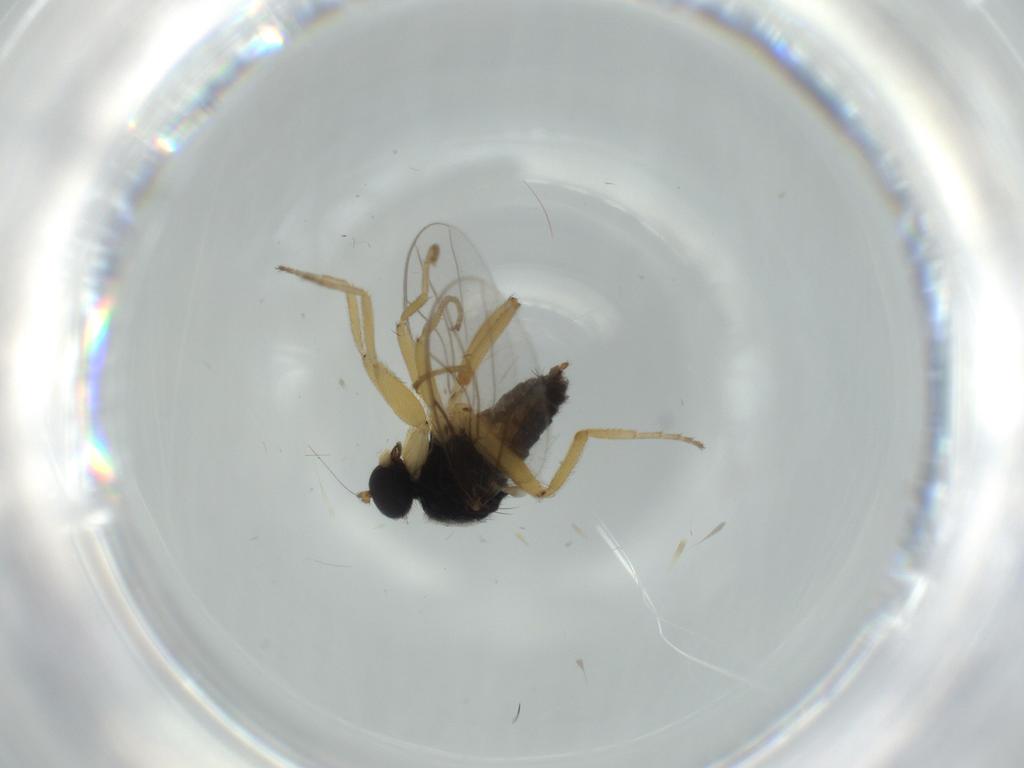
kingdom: Animalia
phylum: Arthropoda
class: Insecta
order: Diptera
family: Hybotidae
